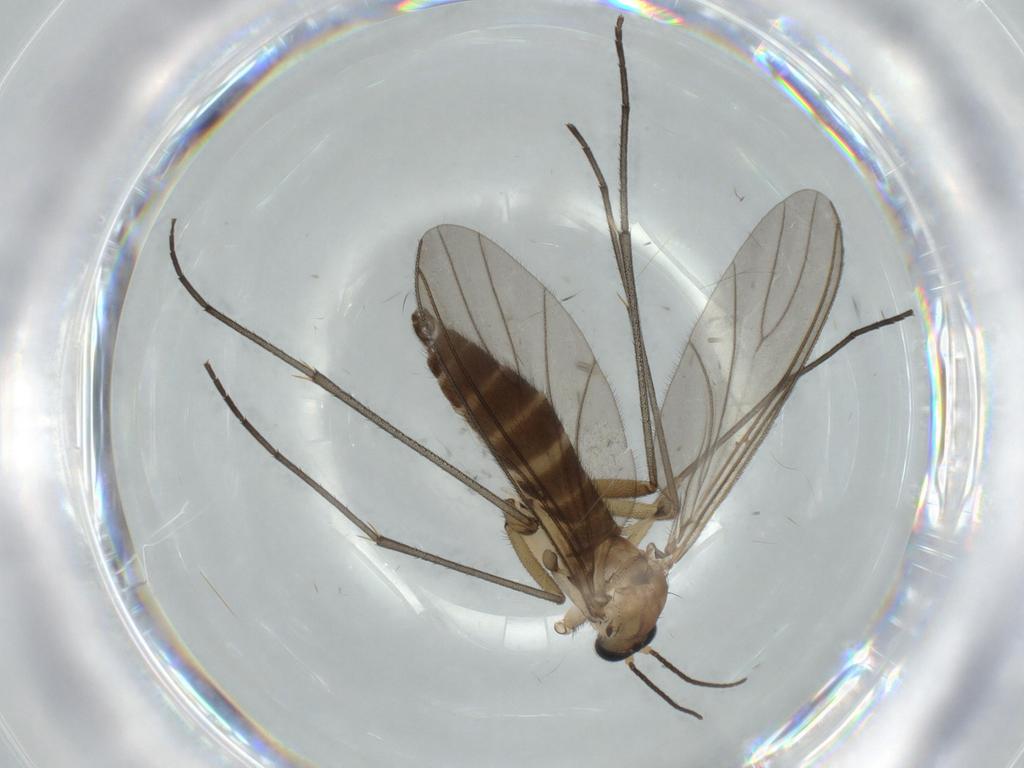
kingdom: Animalia
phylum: Arthropoda
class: Insecta
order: Diptera
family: Sciaridae
